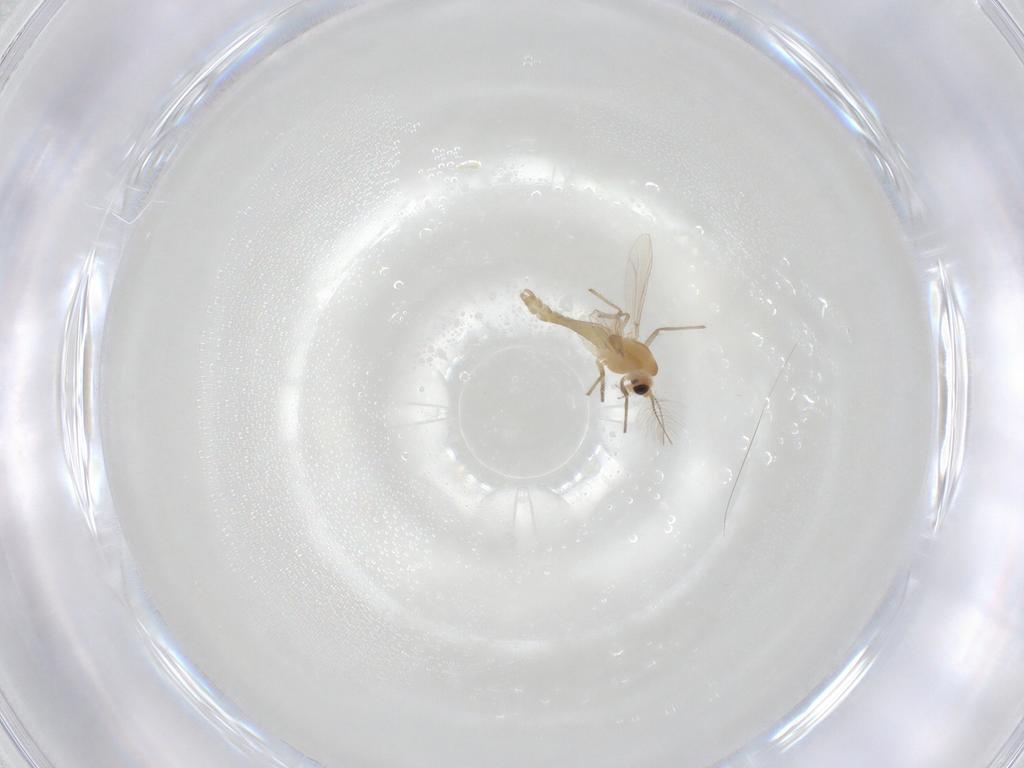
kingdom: Animalia
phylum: Arthropoda
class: Insecta
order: Diptera
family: Chironomidae
